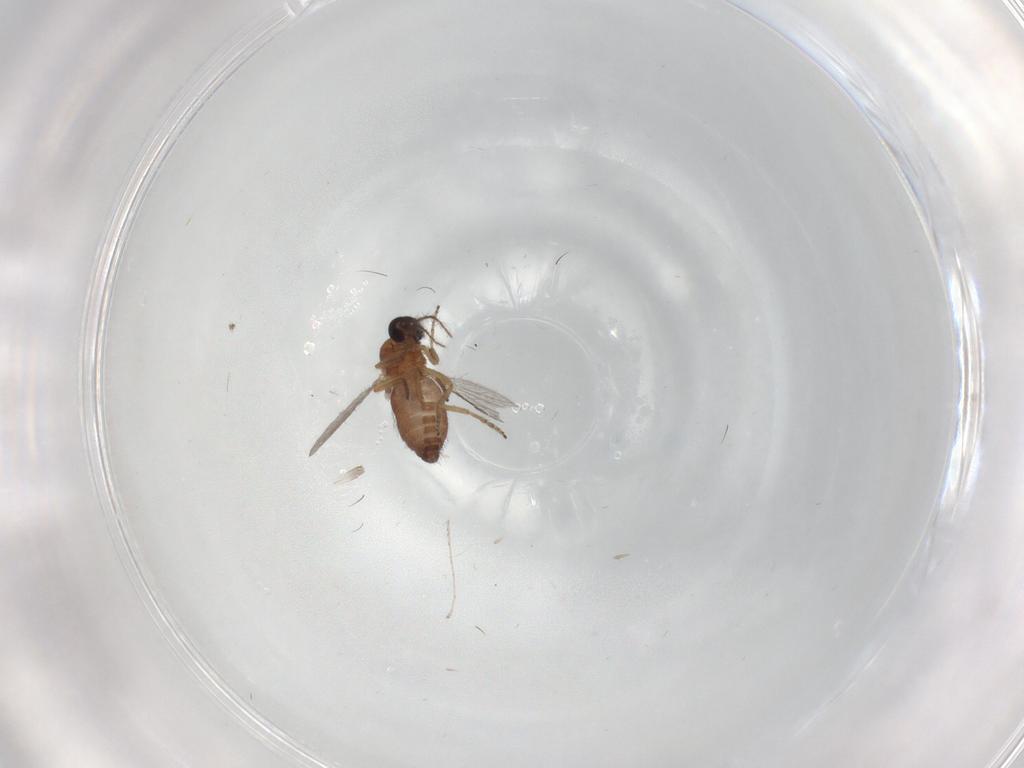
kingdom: Animalia
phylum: Arthropoda
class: Insecta
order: Diptera
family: Ceratopogonidae
